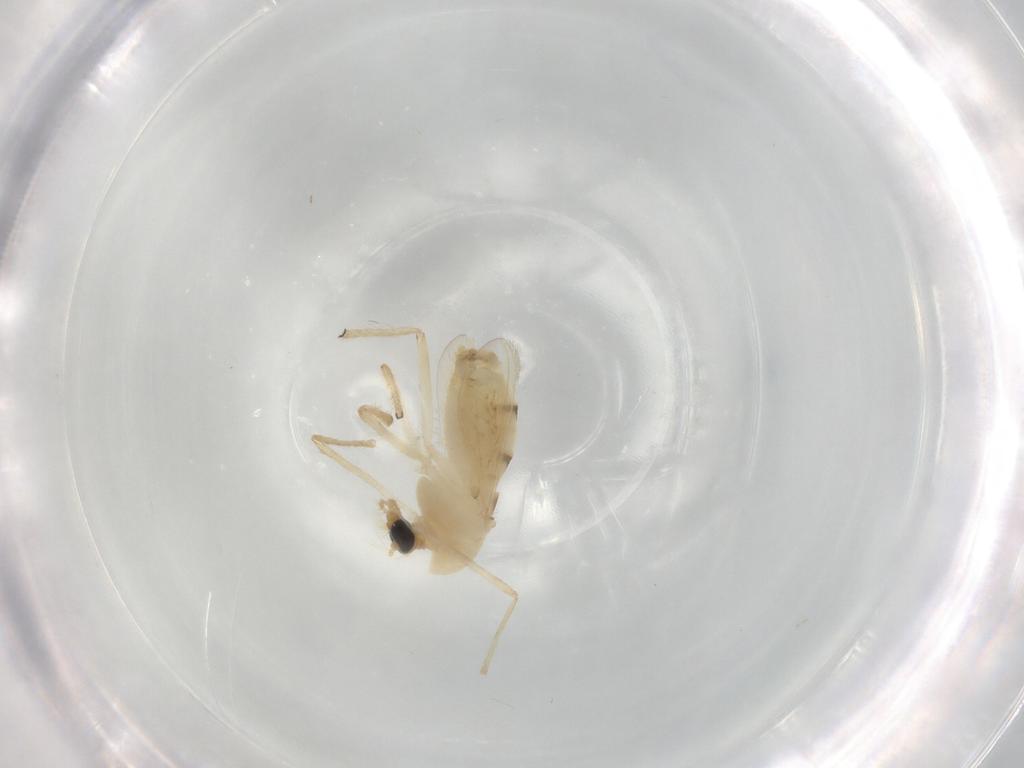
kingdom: Animalia
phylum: Arthropoda
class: Insecta
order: Diptera
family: Chironomidae
